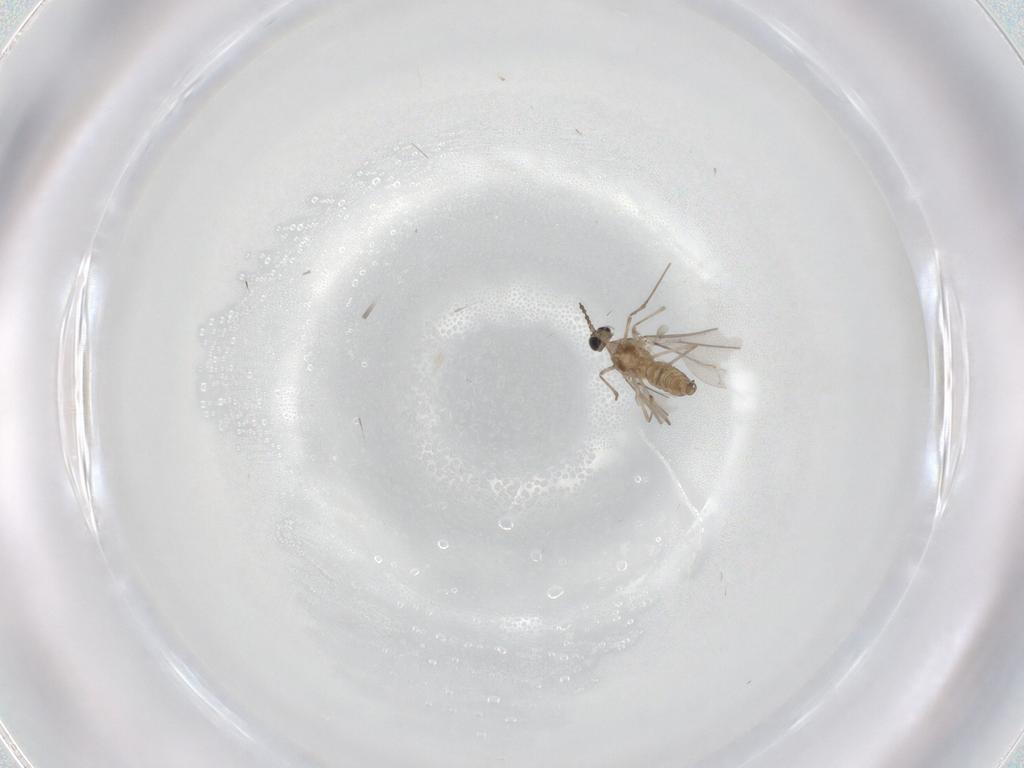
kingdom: Animalia
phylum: Arthropoda
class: Insecta
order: Diptera
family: Cecidomyiidae
